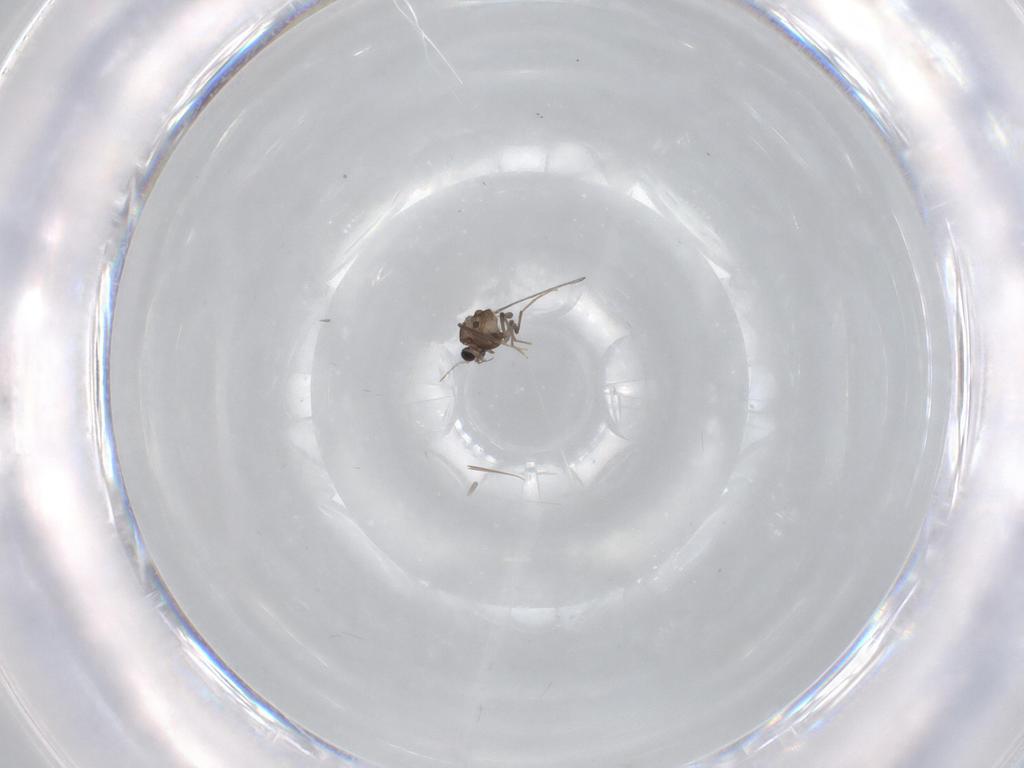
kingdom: Animalia
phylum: Arthropoda
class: Insecta
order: Diptera
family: Chironomidae
